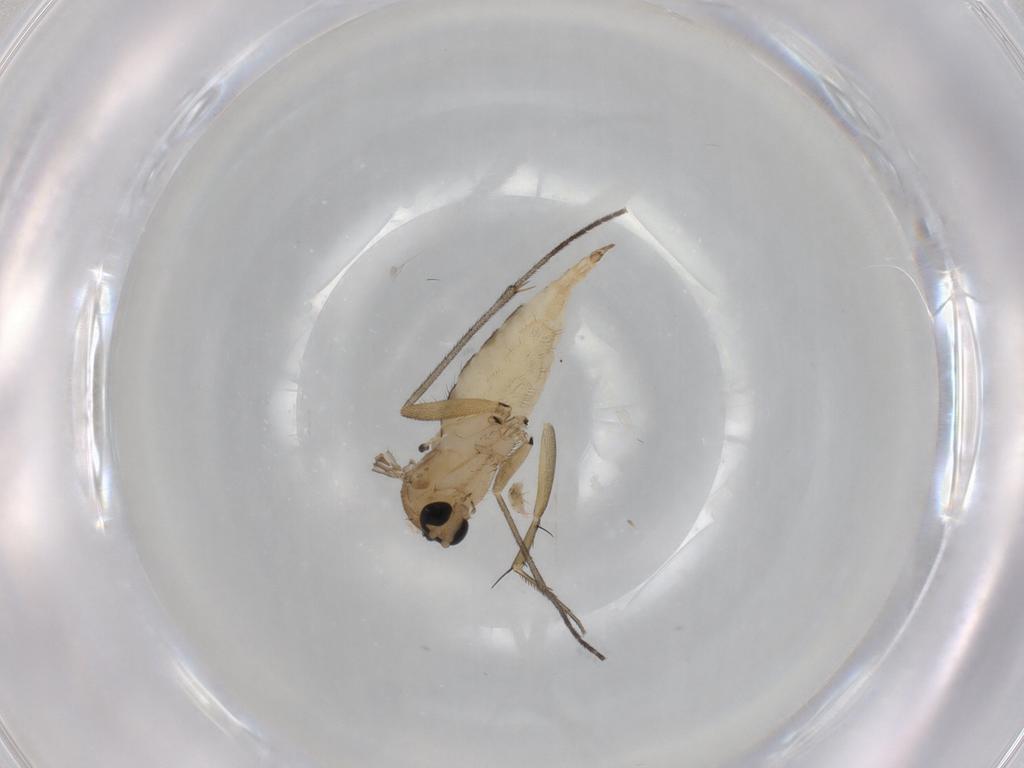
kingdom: Animalia
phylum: Arthropoda
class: Insecta
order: Diptera
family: Sciaridae
